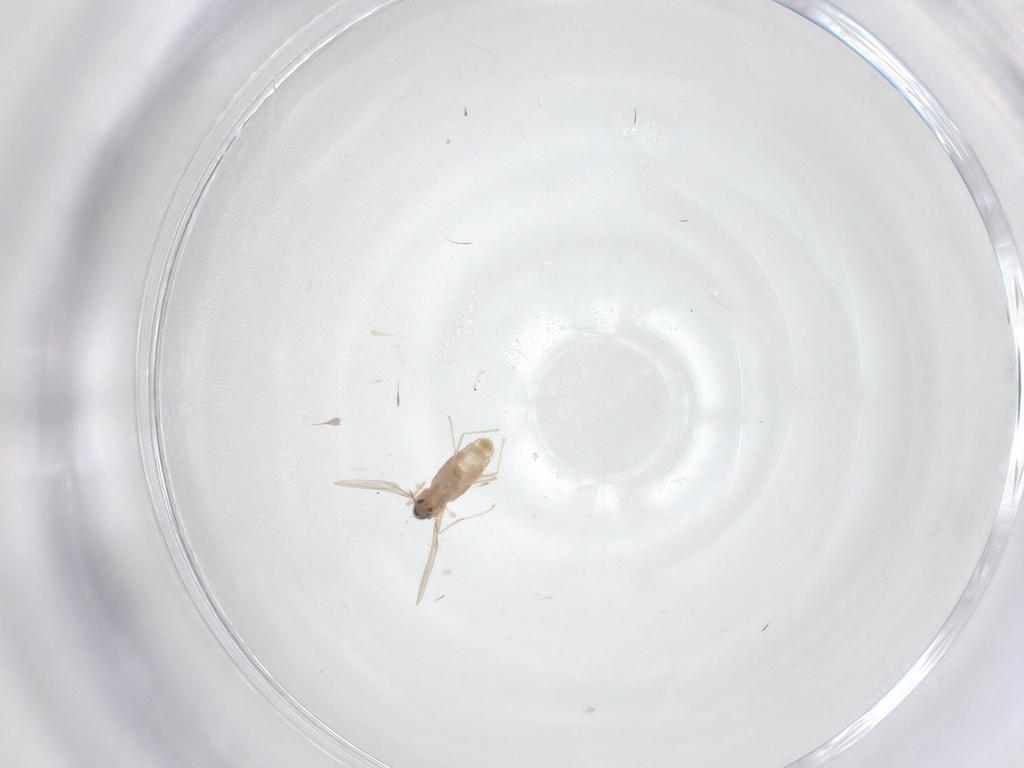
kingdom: Animalia
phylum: Arthropoda
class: Insecta
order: Diptera
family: Cecidomyiidae
